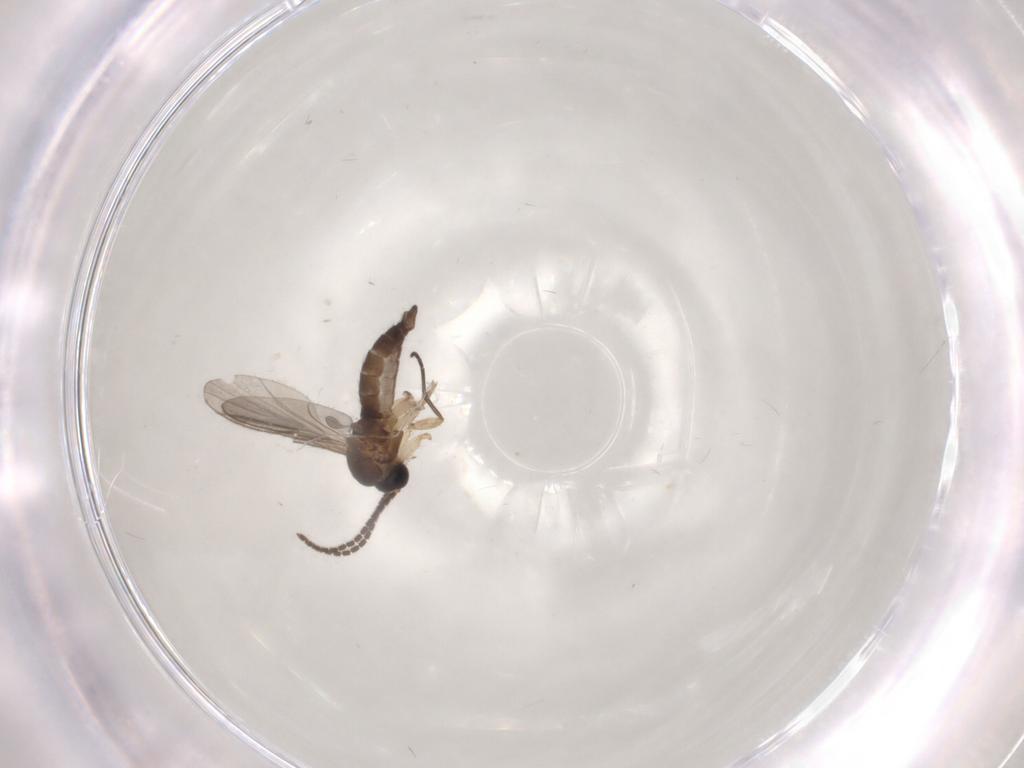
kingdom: Animalia
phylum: Arthropoda
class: Insecta
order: Diptera
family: Sciaridae
